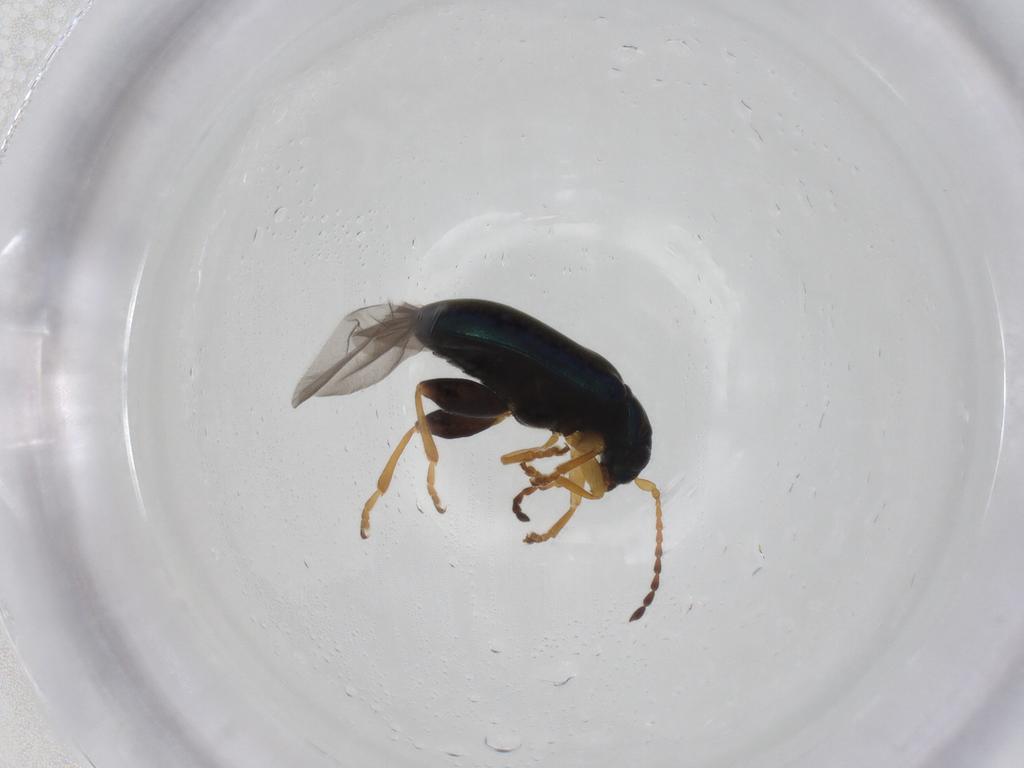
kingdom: Animalia
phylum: Arthropoda
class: Insecta
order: Coleoptera
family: Chrysomelidae
